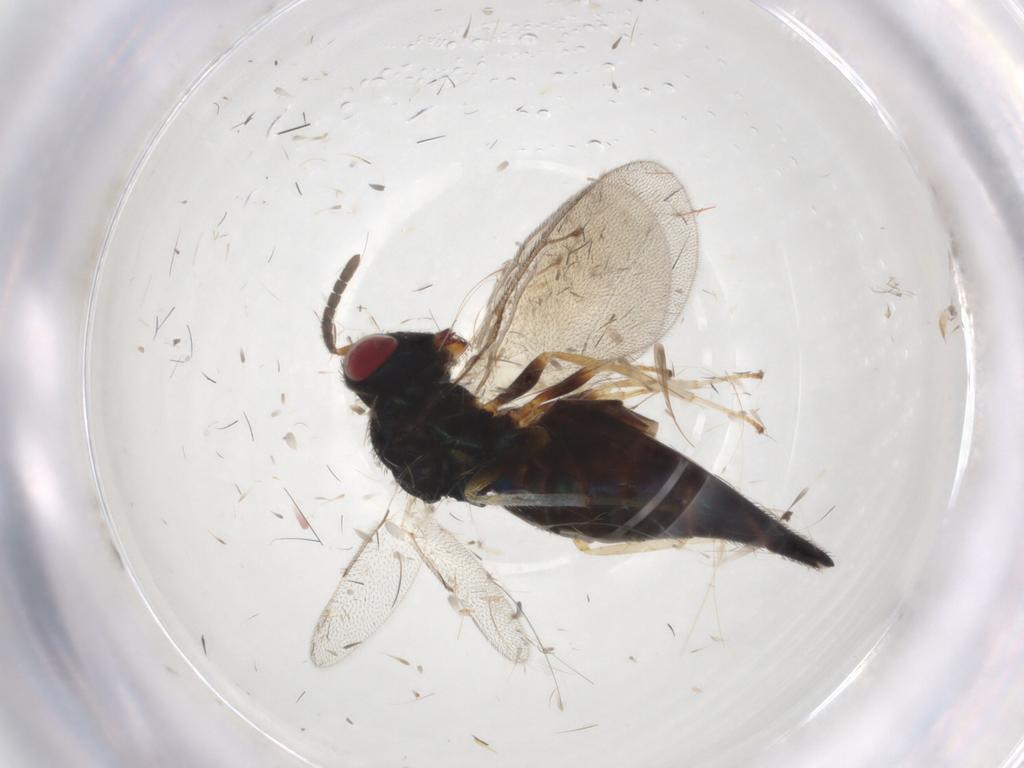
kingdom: Animalia
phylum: Arthropoda
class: Insecta
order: Hymenoptera
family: Pteromalidae
